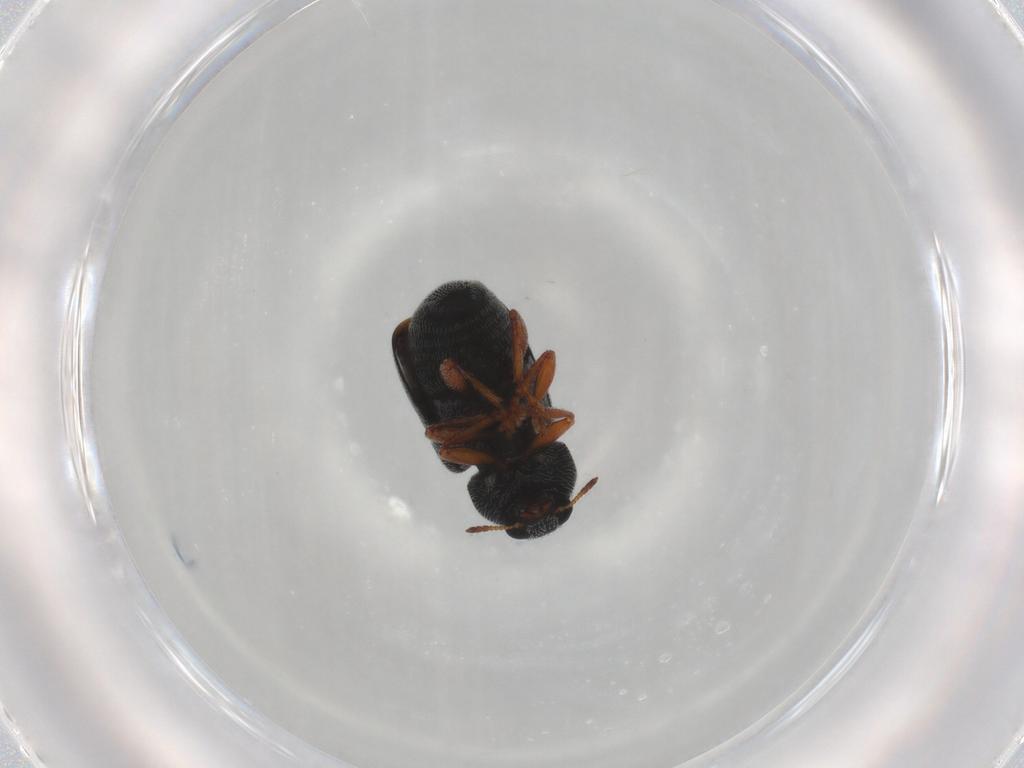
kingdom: Animalia
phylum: Arthropoda
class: Insecta
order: Coleoptera
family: Anthribidae
